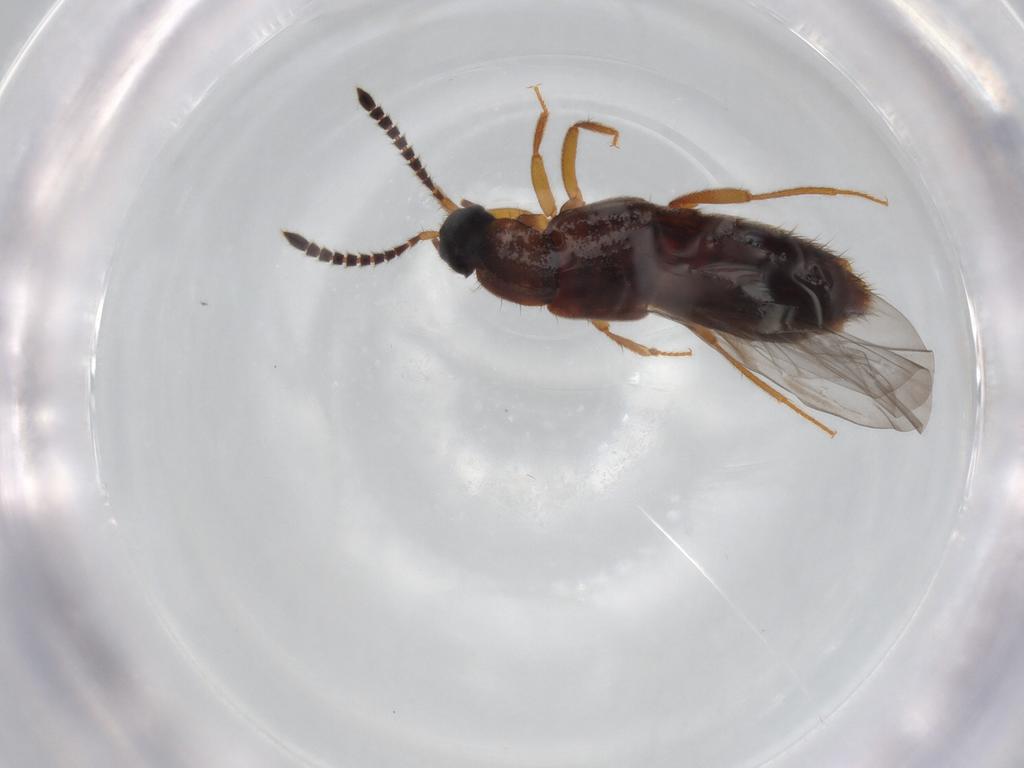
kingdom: Animalia
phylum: Arthropoda
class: Insecta
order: Coleoptera
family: Staphylinidae
